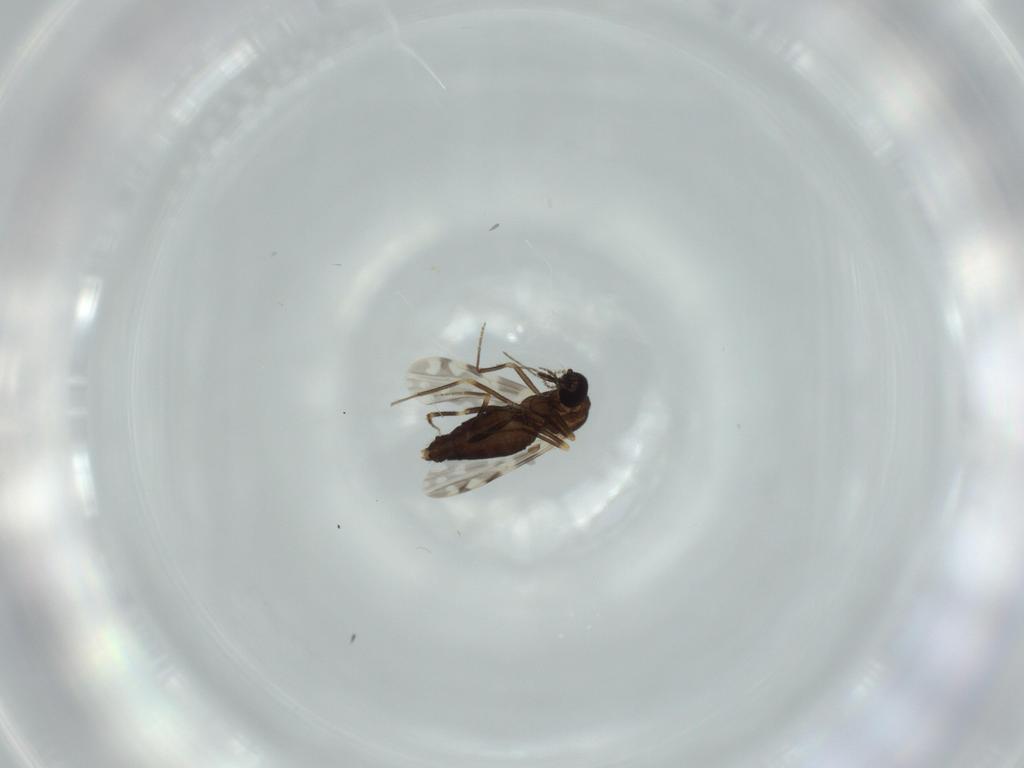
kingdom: Animalia
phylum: Arthropoda
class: Insecta
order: Diptera
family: Ceratopogonidae
